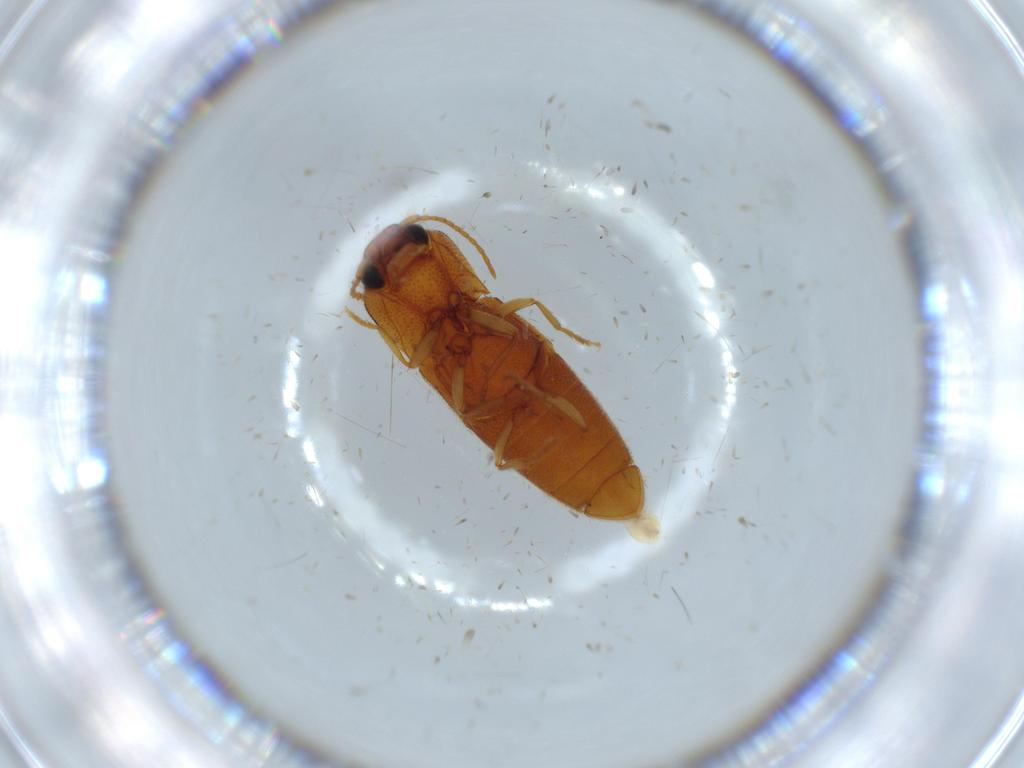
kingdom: Animalia
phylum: Arthropoda
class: Insecta
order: Coleoptera
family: Elateridae
